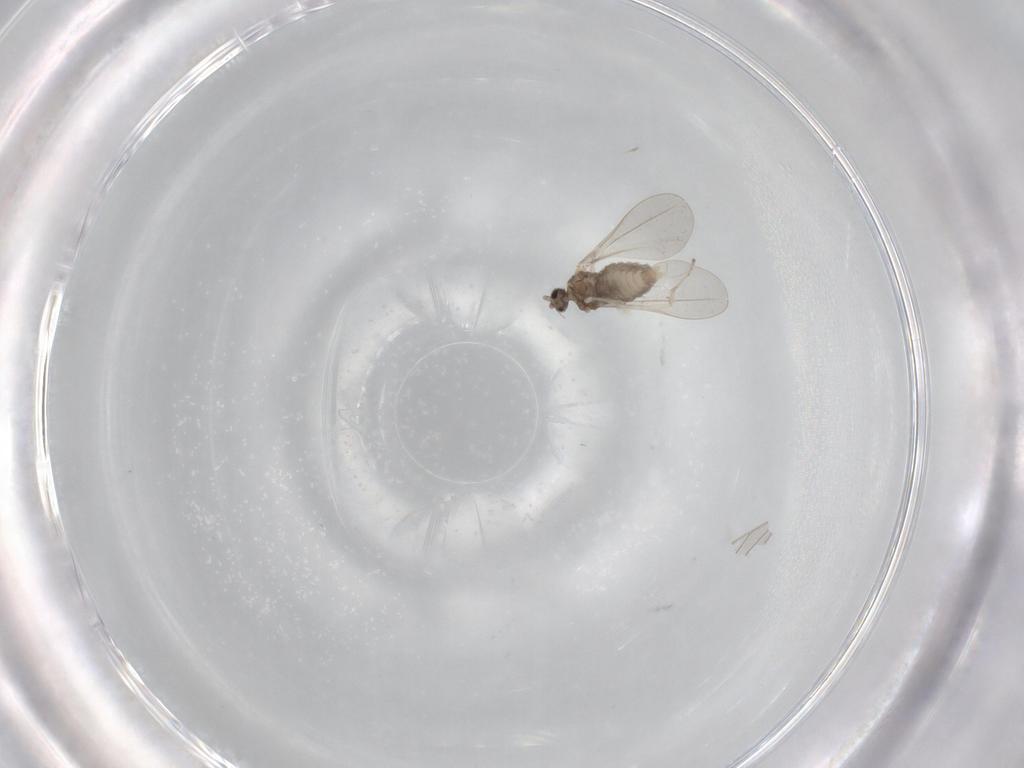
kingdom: Animalia
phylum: Arthropoda
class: Insecta
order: Diptera
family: Cecidomyiidae
